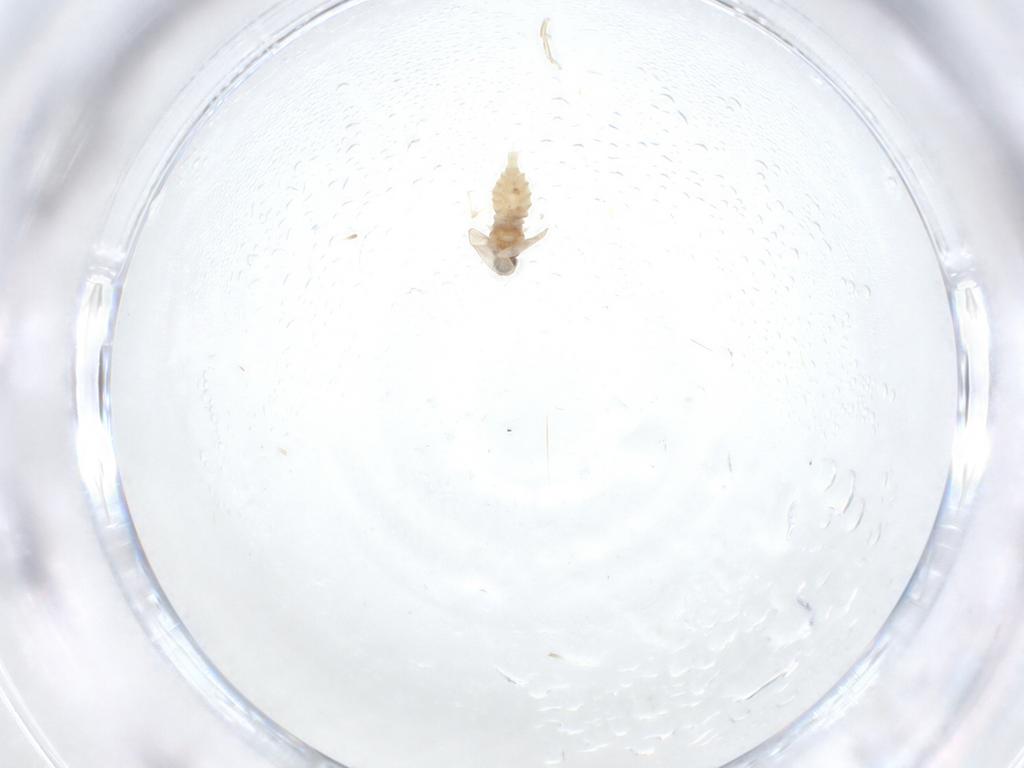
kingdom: Animalia
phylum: Arthropoda
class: Insecta
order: Diptera
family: Cecidomyiidae
